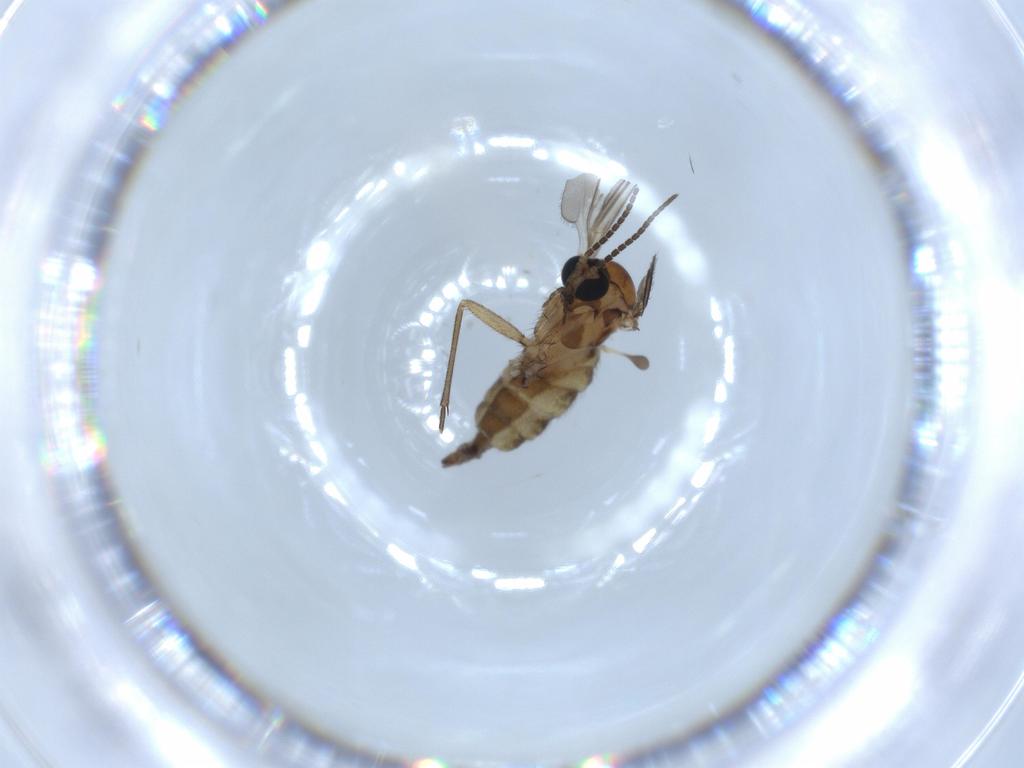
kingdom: Animalia
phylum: Arthropoda
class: Insecta
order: Diptera
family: Sciaridae
